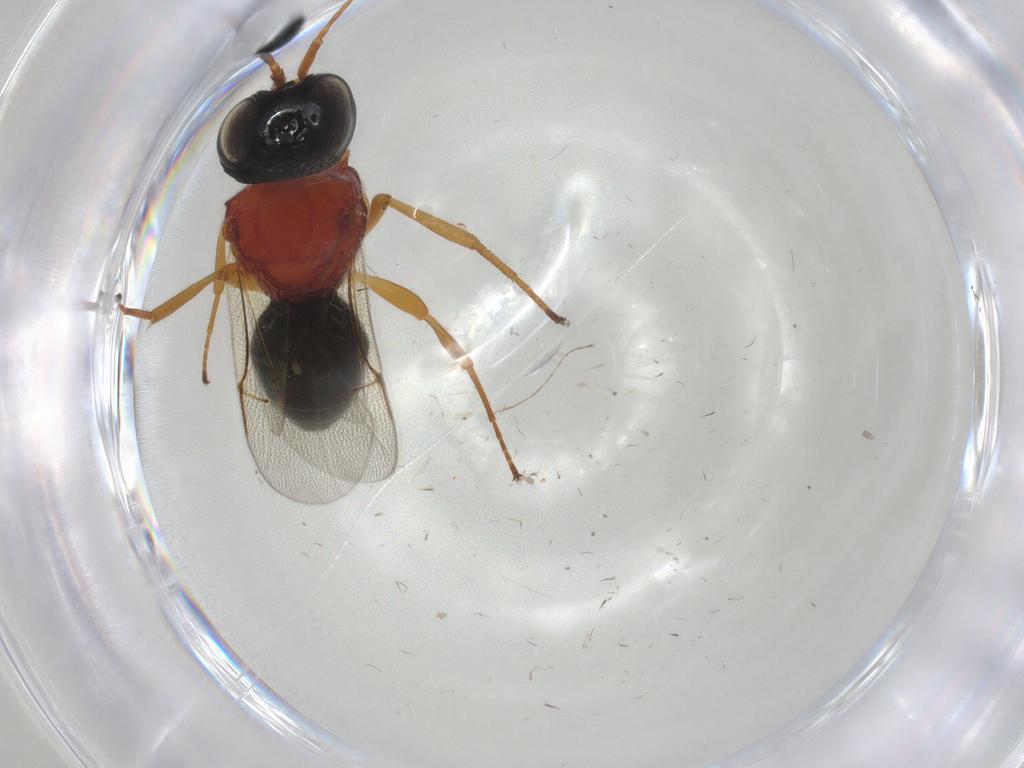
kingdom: Animalia
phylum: Arthropoda
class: Insecta
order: Hymenoptera
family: Scelionidae
